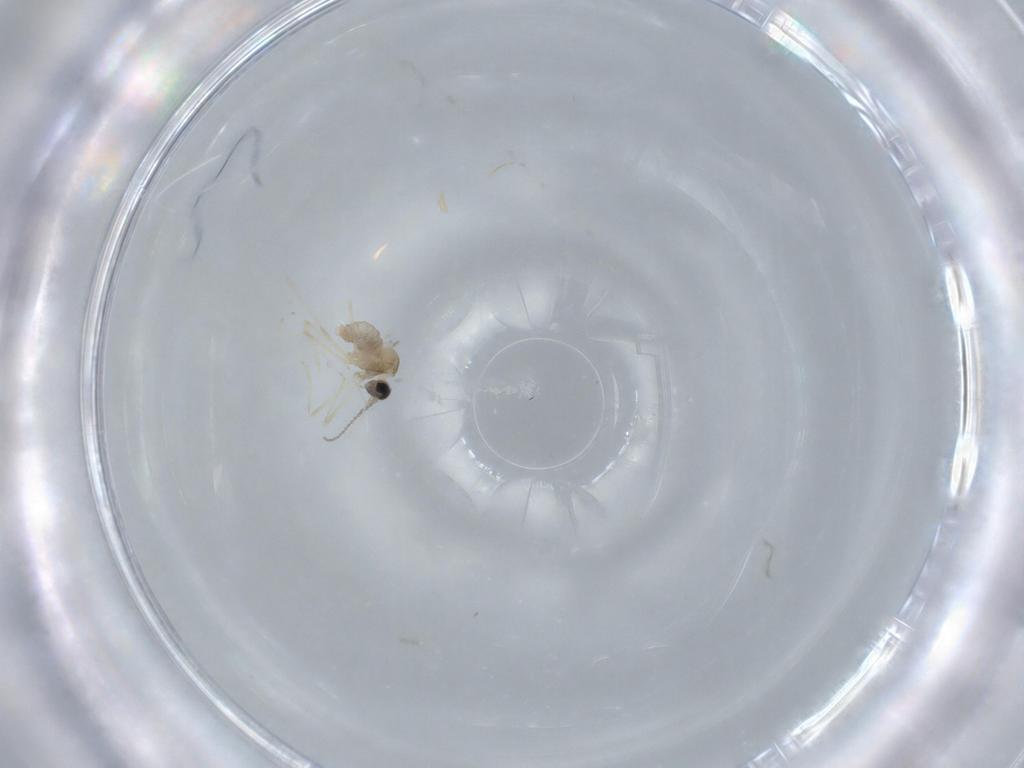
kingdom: Animalia
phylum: Arthropoda
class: Insecta
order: Diptera
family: Cecidomyiidae
